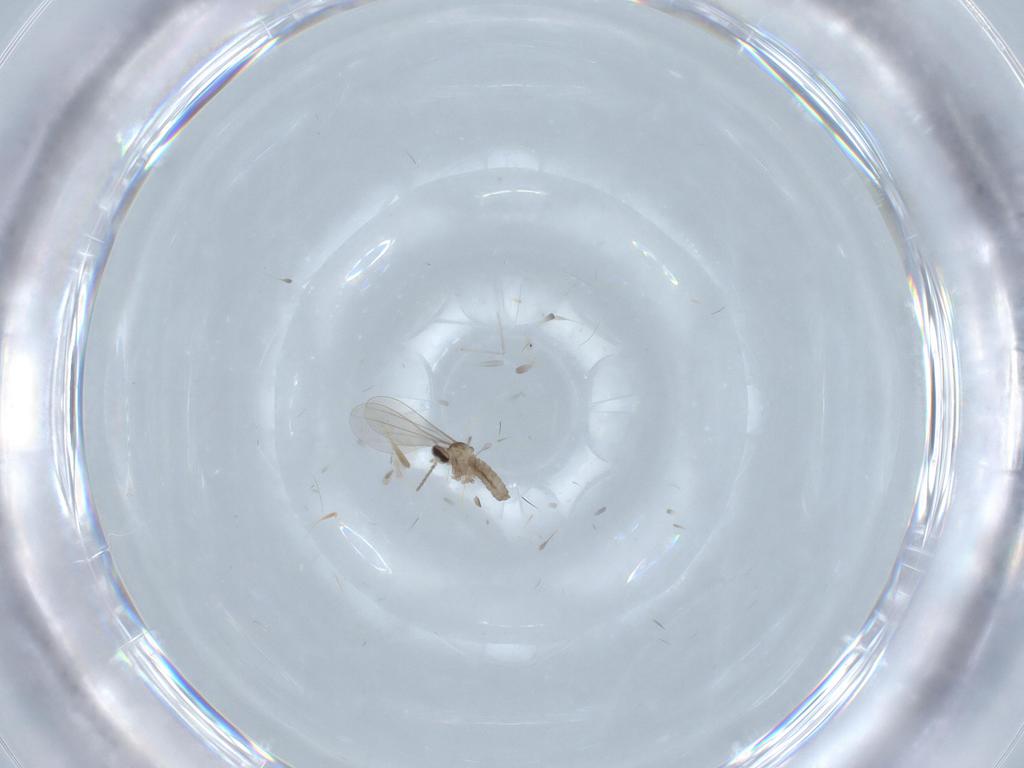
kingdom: Animalia
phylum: Arthropoda
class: Insecta
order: Diptera
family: Cecidomyiidae
